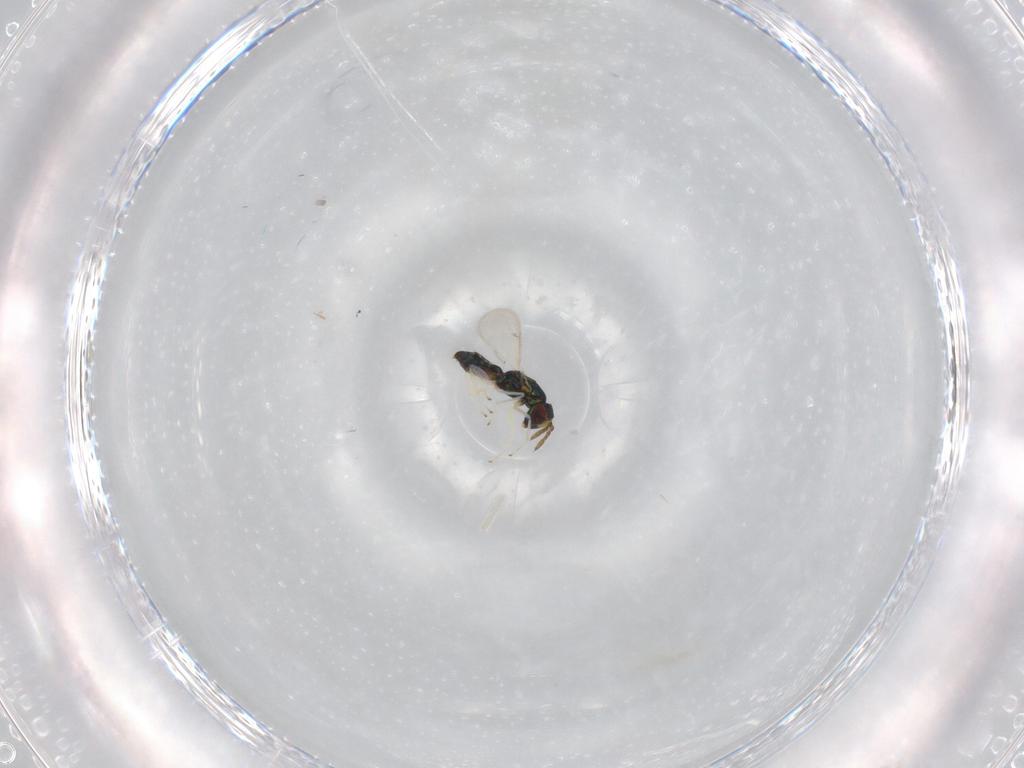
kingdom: Animalia
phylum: Arthropoda
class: Insecta
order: Hymenoptera
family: Eulophidae
